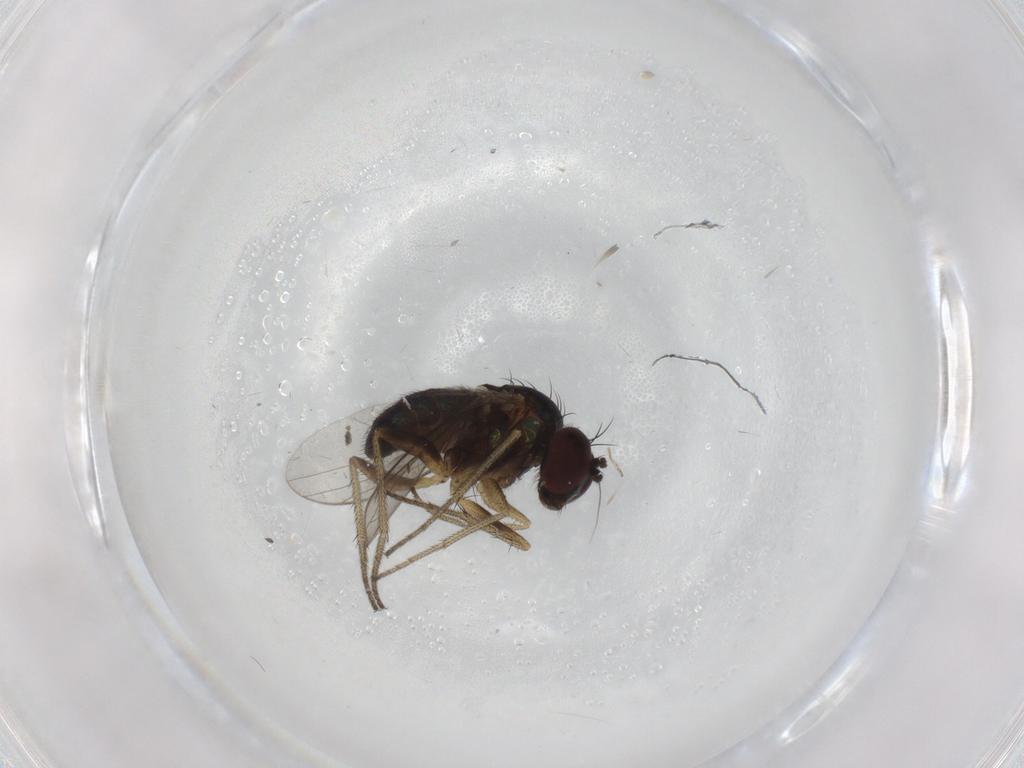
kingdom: Animalia
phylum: Arthropoda
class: Insecta
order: Diptera
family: Dolichopodidae
